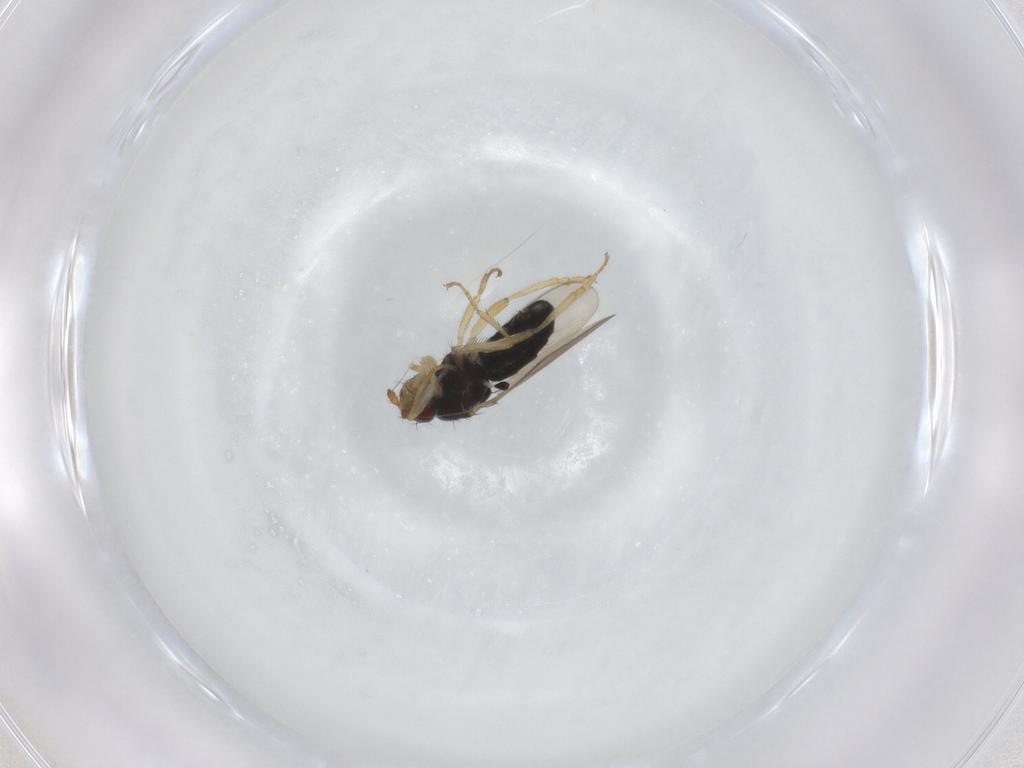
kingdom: Animalia
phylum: Arthropoda
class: Insecta
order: Diptera
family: Sphaeroceridae
